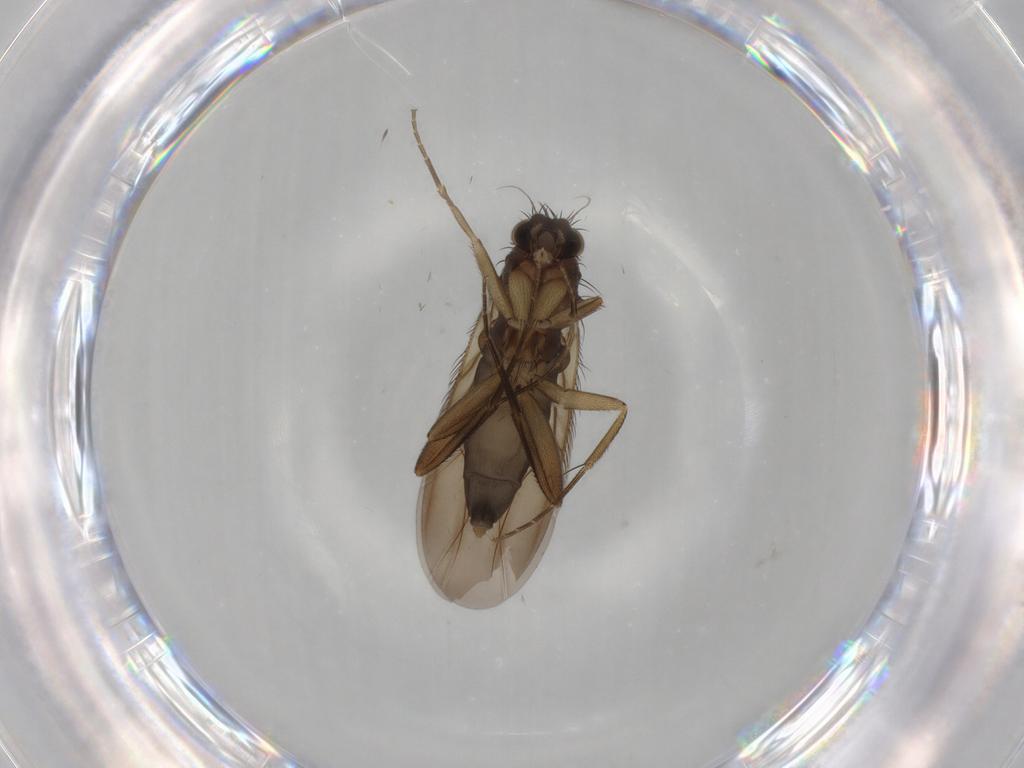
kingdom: Animalia
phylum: Arthropoda
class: Insecta
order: Diptera
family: Phoridae
